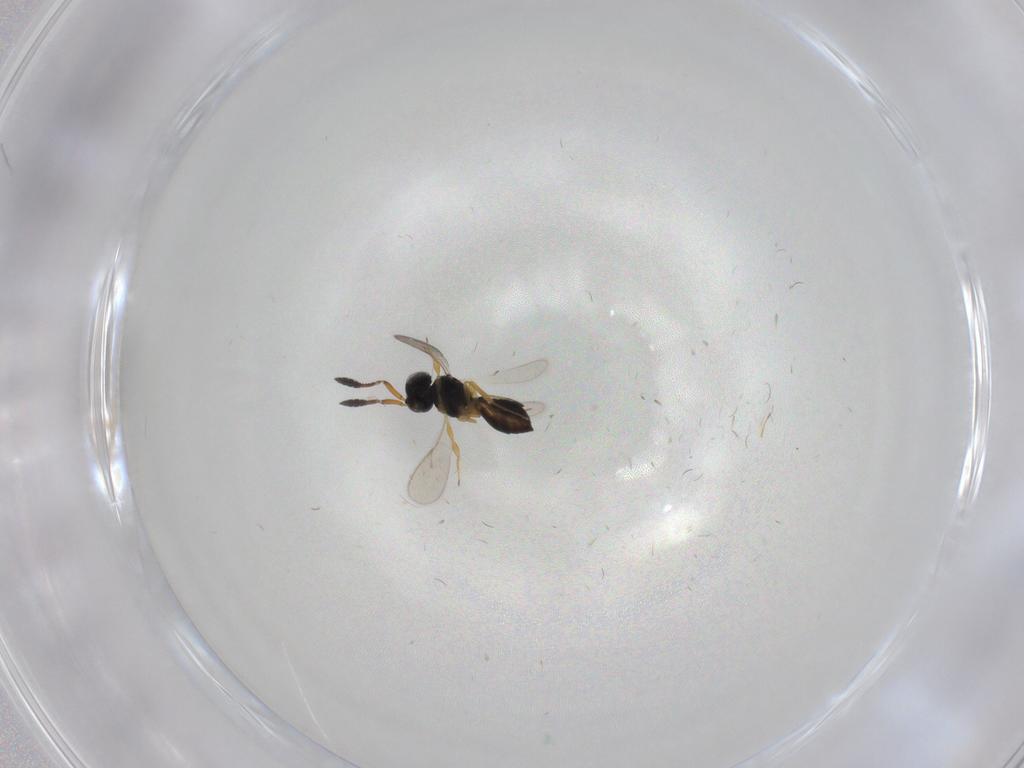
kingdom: Animalia
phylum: Arthropoda
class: Insecta
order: Hymenoptera
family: Scelionidae
